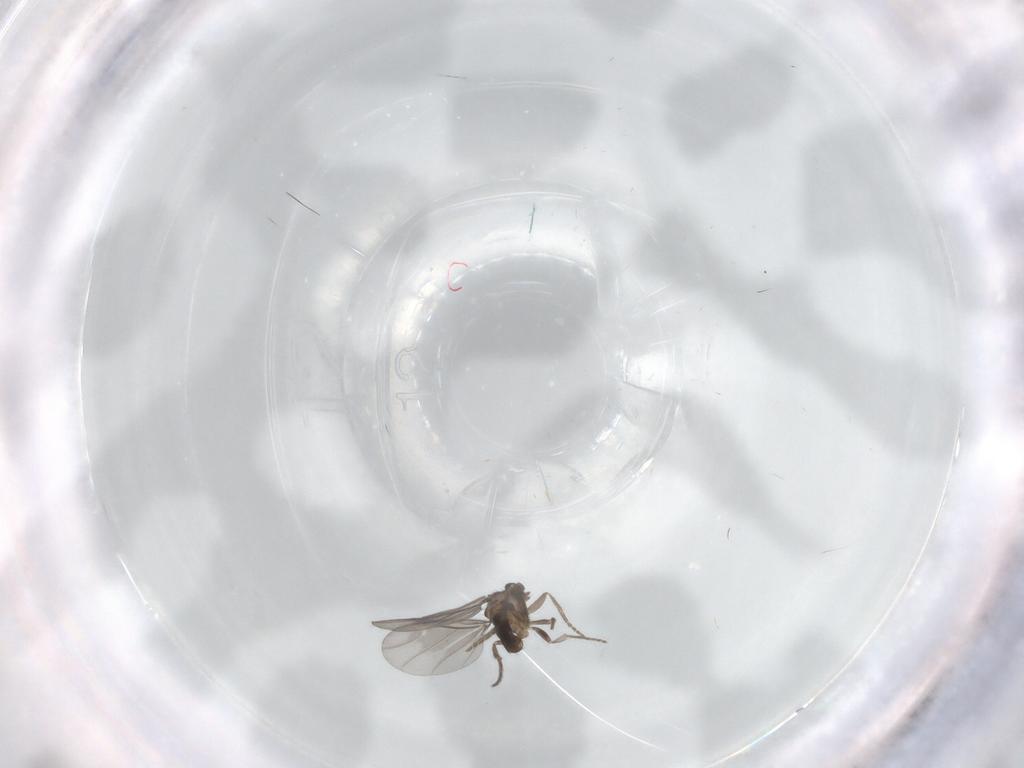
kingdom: Animalia
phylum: Arthropoda
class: Insecta
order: Diptera
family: Phoridae
